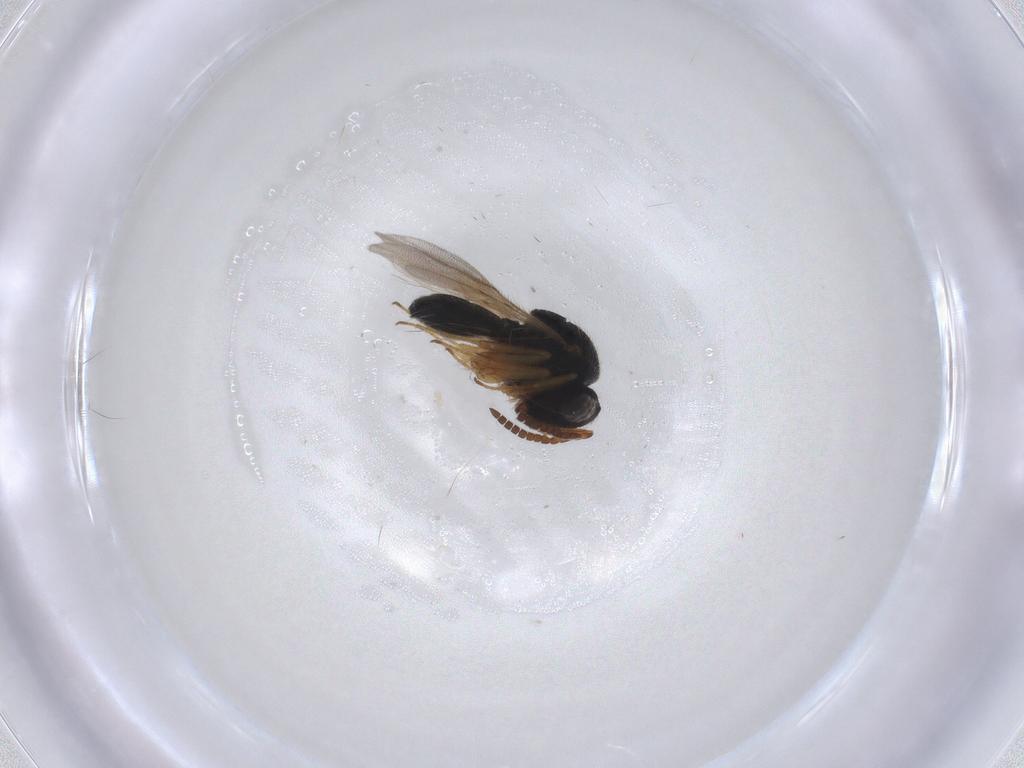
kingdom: Animalia
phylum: Arthropoda
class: Insecta
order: Hymenoptera
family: Scelionidae
